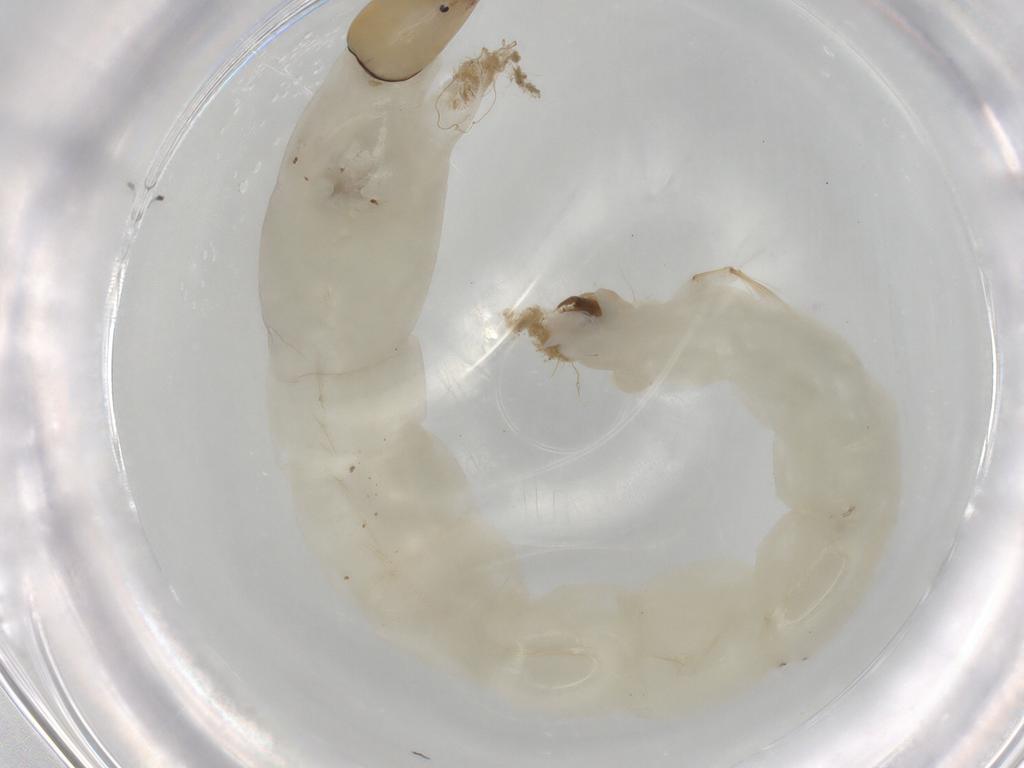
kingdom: Animalia
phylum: Arthropoda
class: Insecta
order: Diptera
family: Chironomidae
